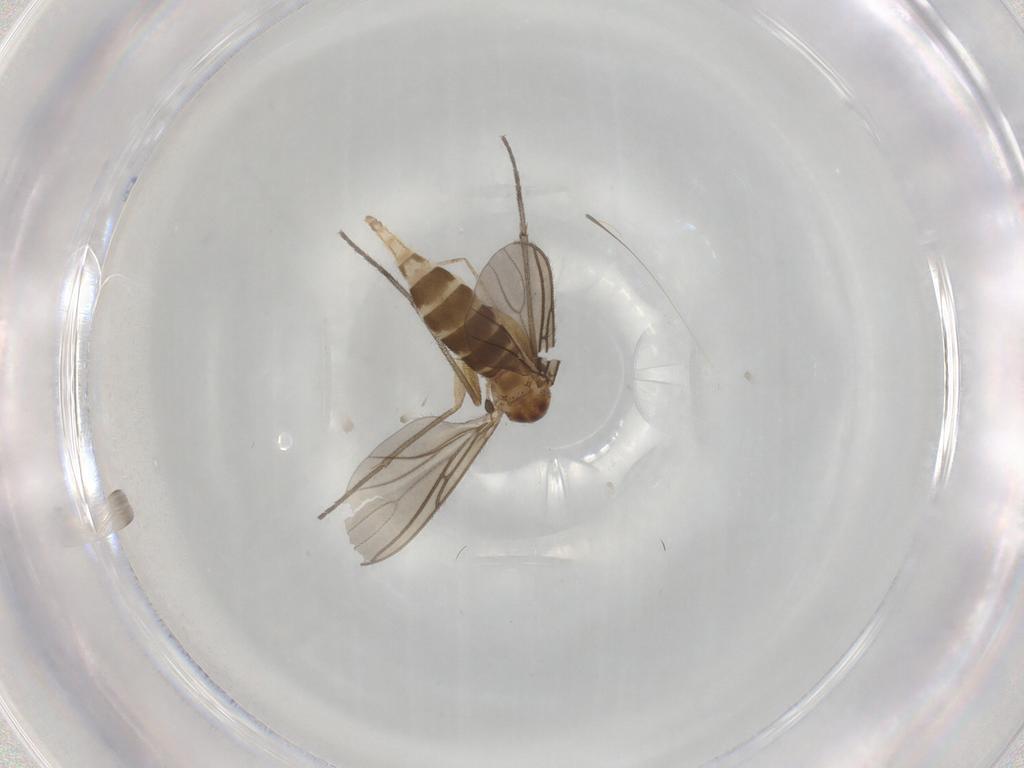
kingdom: Animalia
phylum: Arthropoda
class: Insecta
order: Diptera
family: Sciaridae
